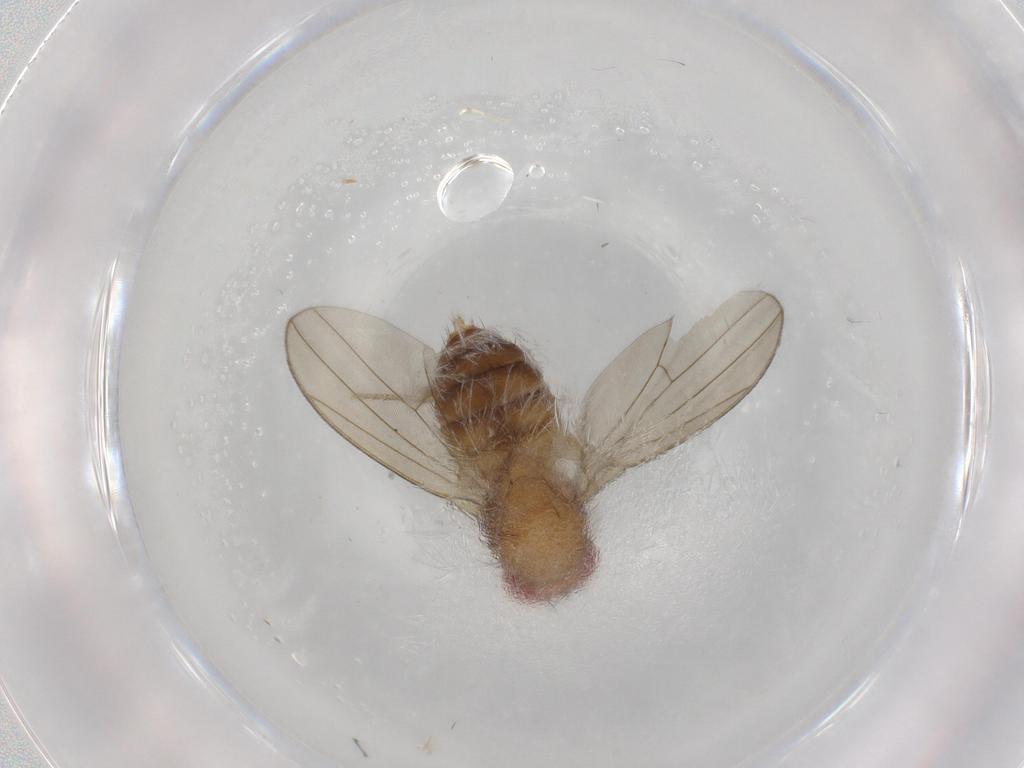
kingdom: Animalia
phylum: Arthropoda
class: Insecta
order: Diptera
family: Drosophilidae
